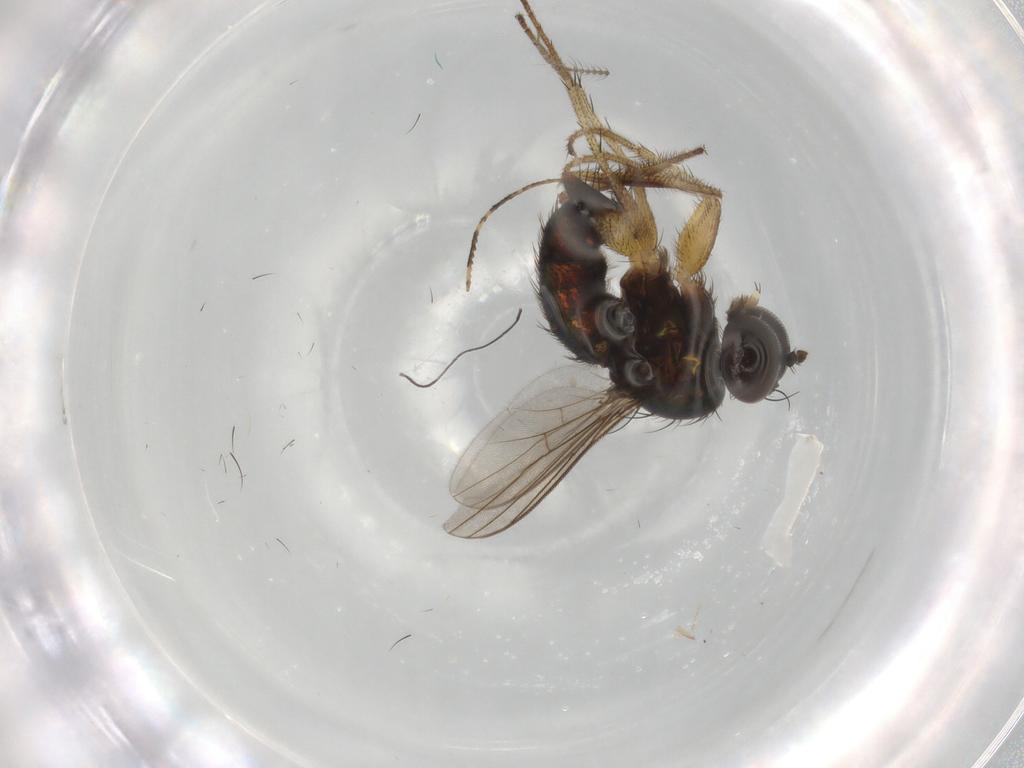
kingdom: Animalia
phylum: Arthropoda
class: Insecta
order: Diptera
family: Dolichopodidae
